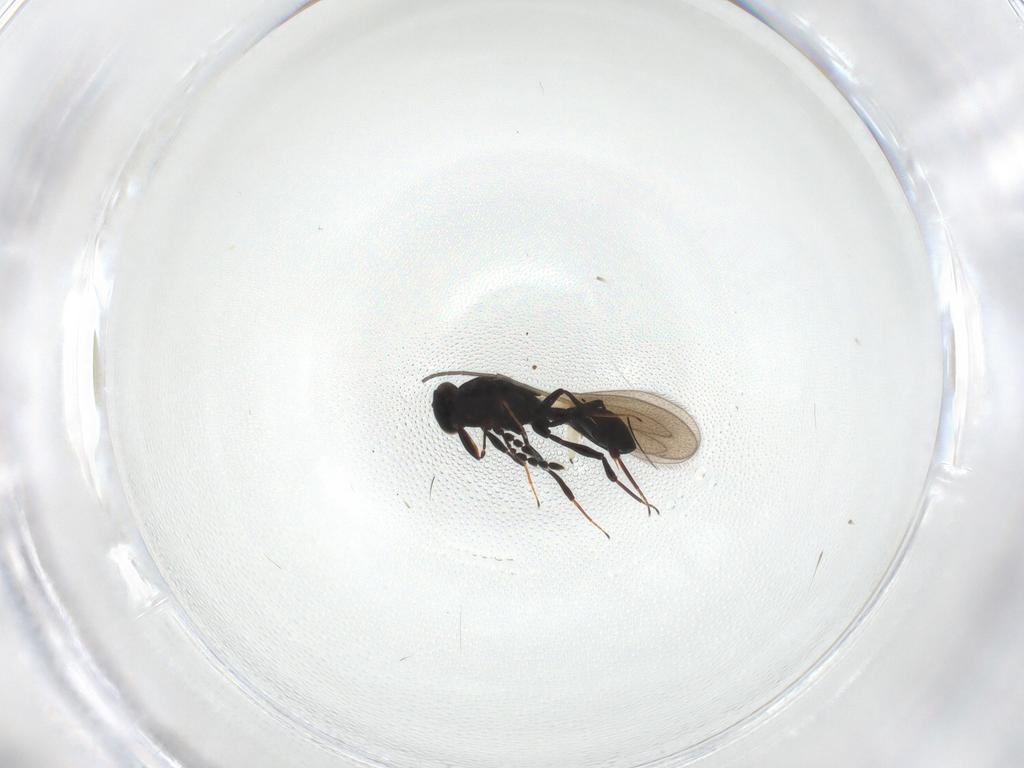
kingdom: Animalia
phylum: Arthropoda
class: Insecta
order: Hymenoptera
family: Platygastridae
